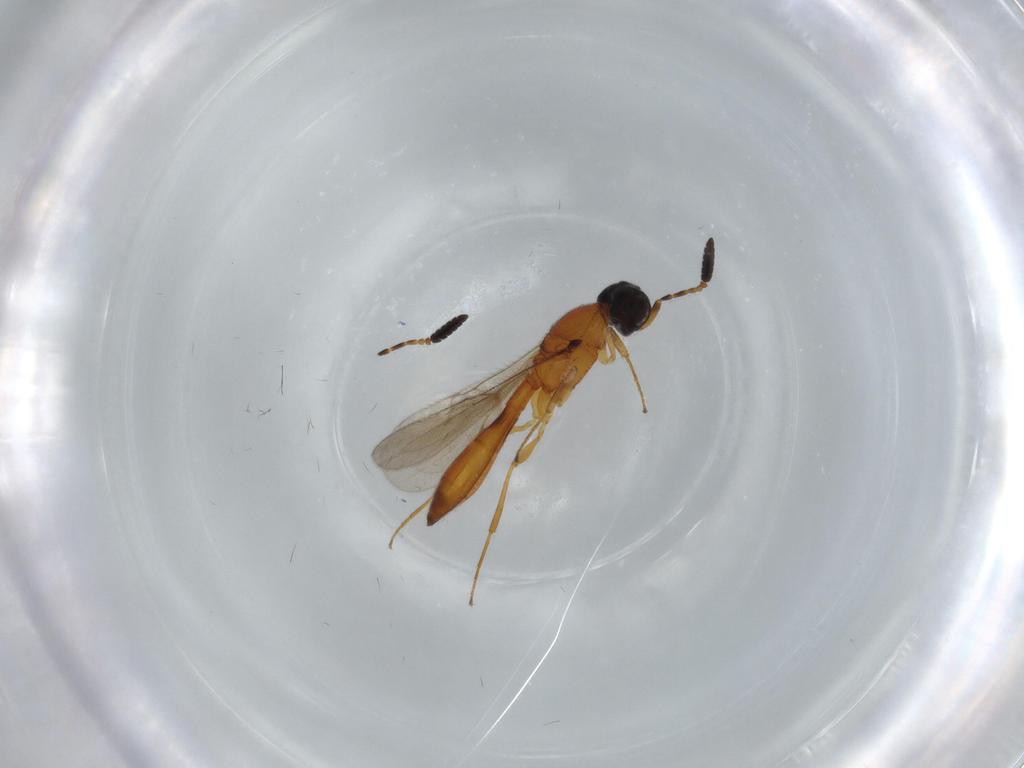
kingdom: Animalia
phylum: Arthropoda
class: Insecta
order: Hymenoptera
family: Scelionidae
